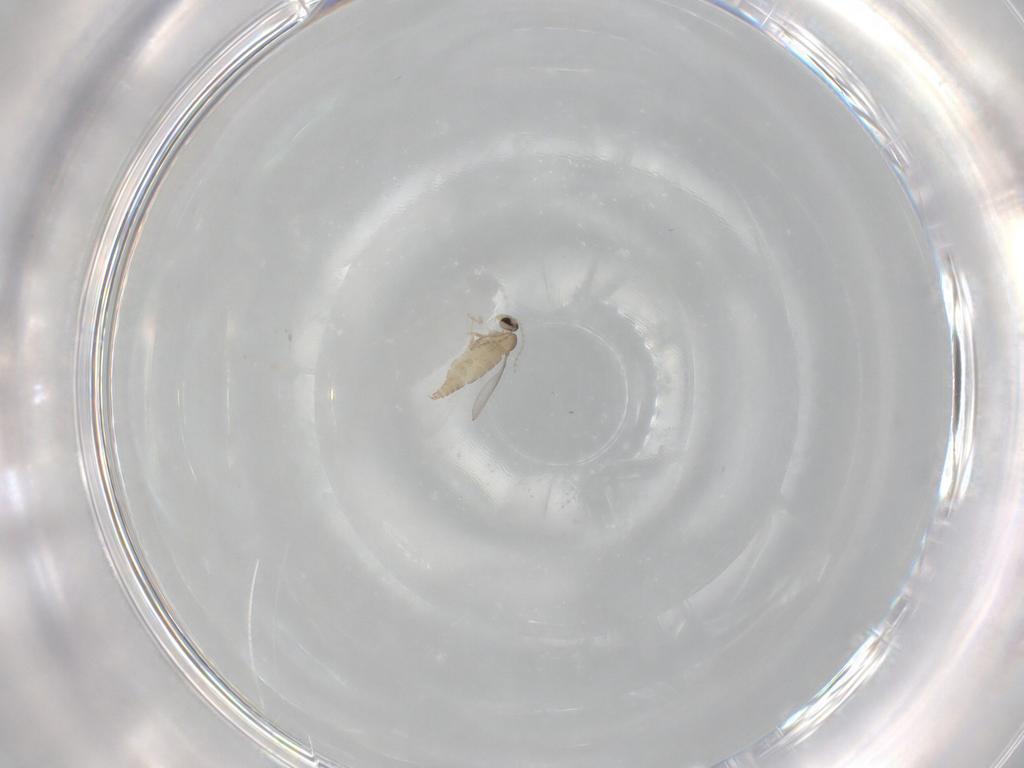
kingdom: Animalia
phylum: Arthropoda
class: Insecta
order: Diptera
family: Cecidomyiidae
